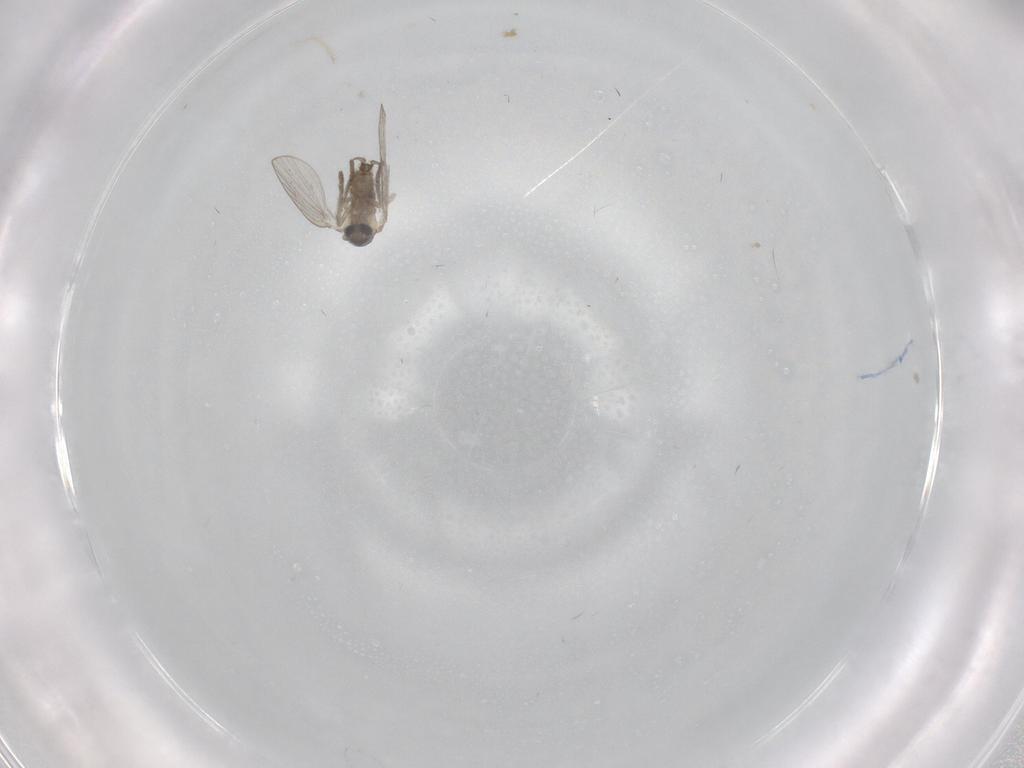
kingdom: Animalia
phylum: Arthropoda
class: Insecta
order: Diptera
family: Psychodidae
